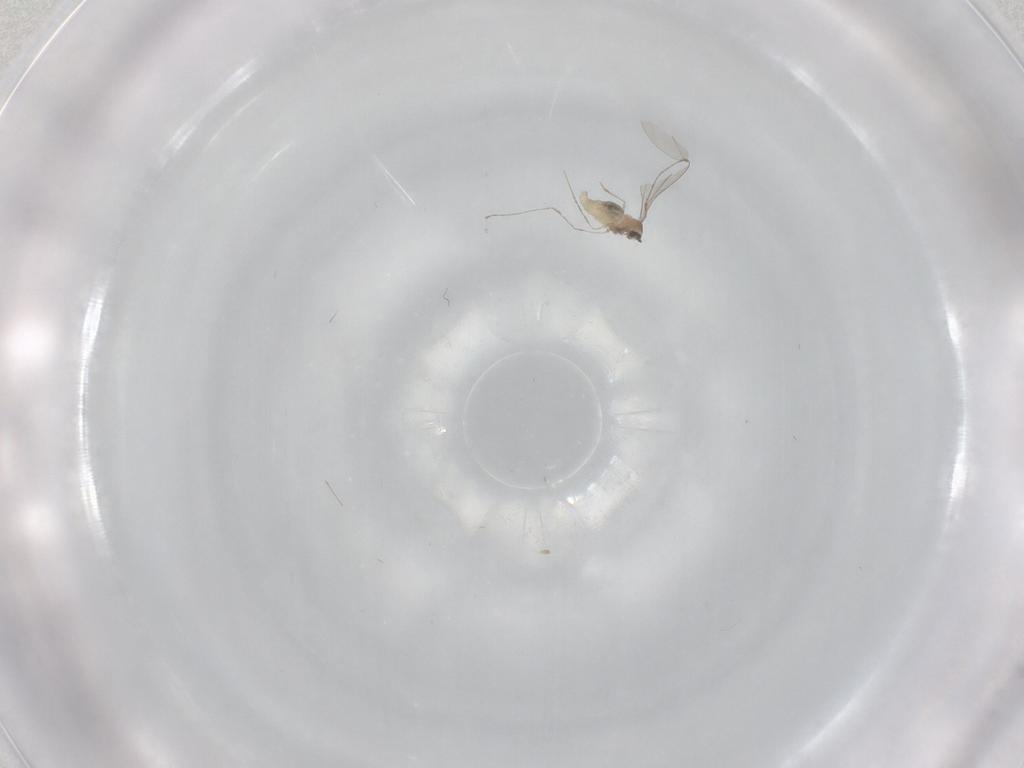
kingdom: Animalia
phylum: Arthropoda
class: Insecta
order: Diptera
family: Cecidomyiidae
